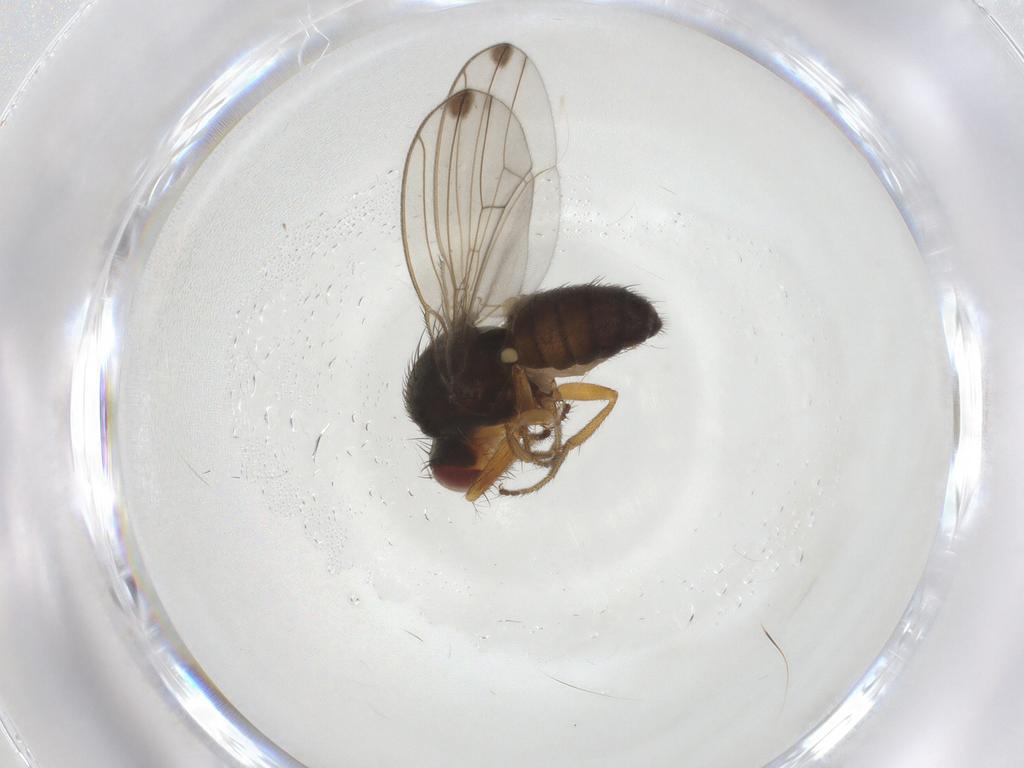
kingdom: Animalia
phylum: Arthropoda
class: Insecta
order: Diptera
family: Drosophilidae
